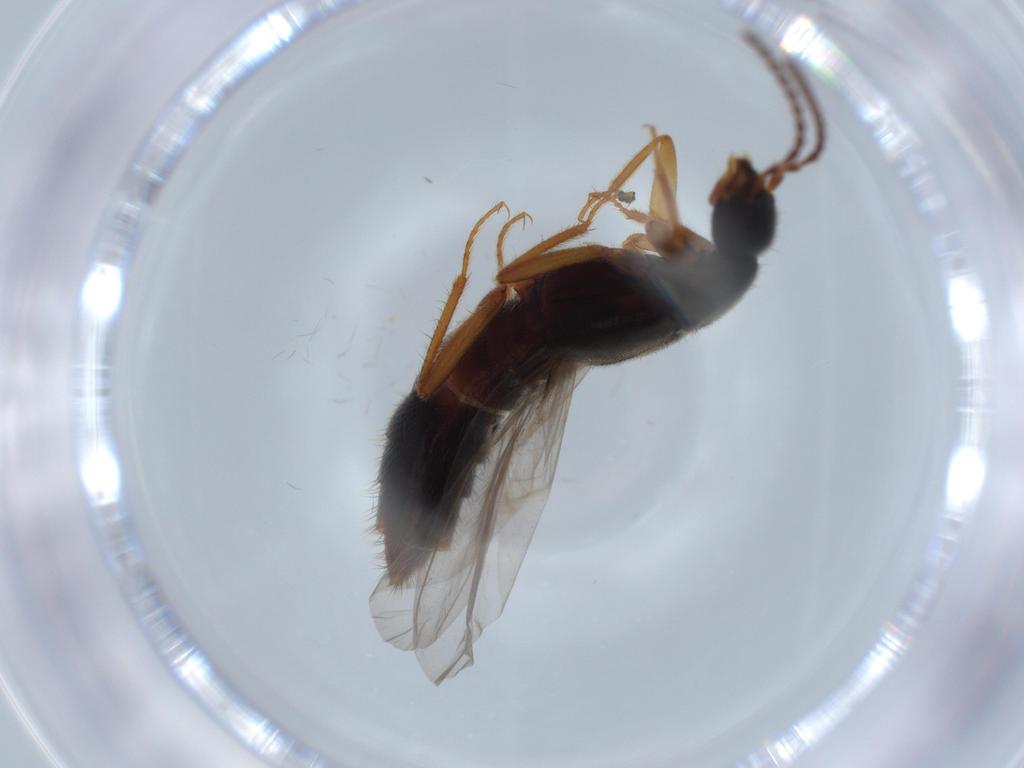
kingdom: Animalia
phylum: Arthropoda
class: Insecta
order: Coleoptera
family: Staphylinidae
